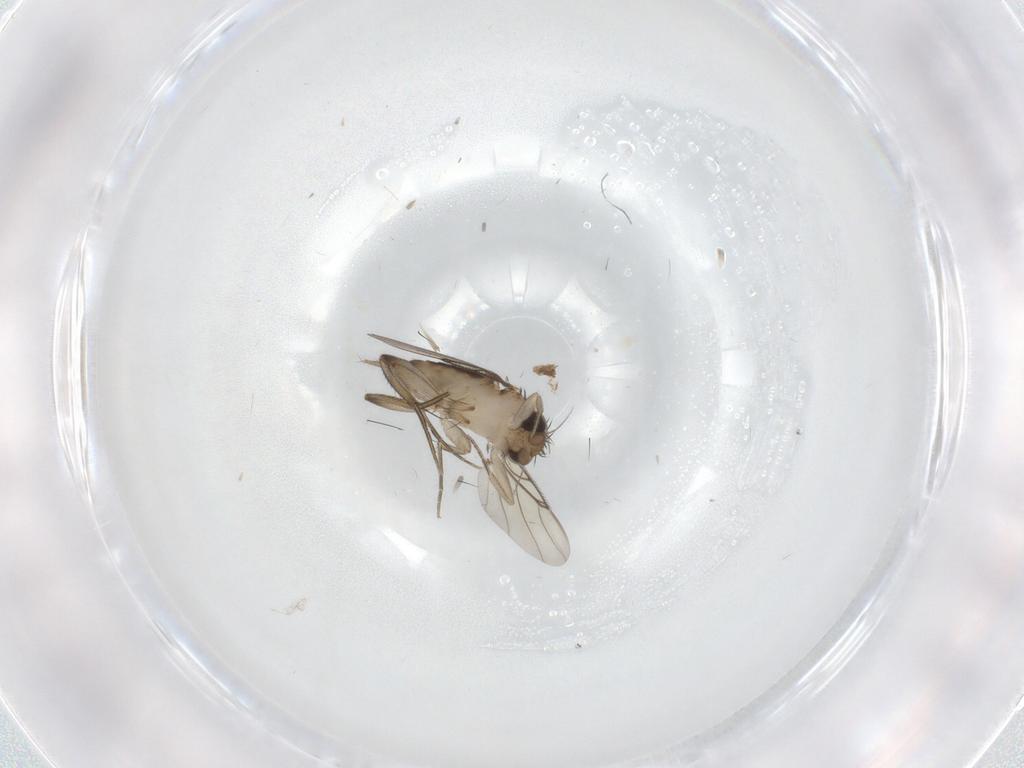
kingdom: Animalia
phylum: Arthropoda
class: Insecta
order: Diptera
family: Phoridae
